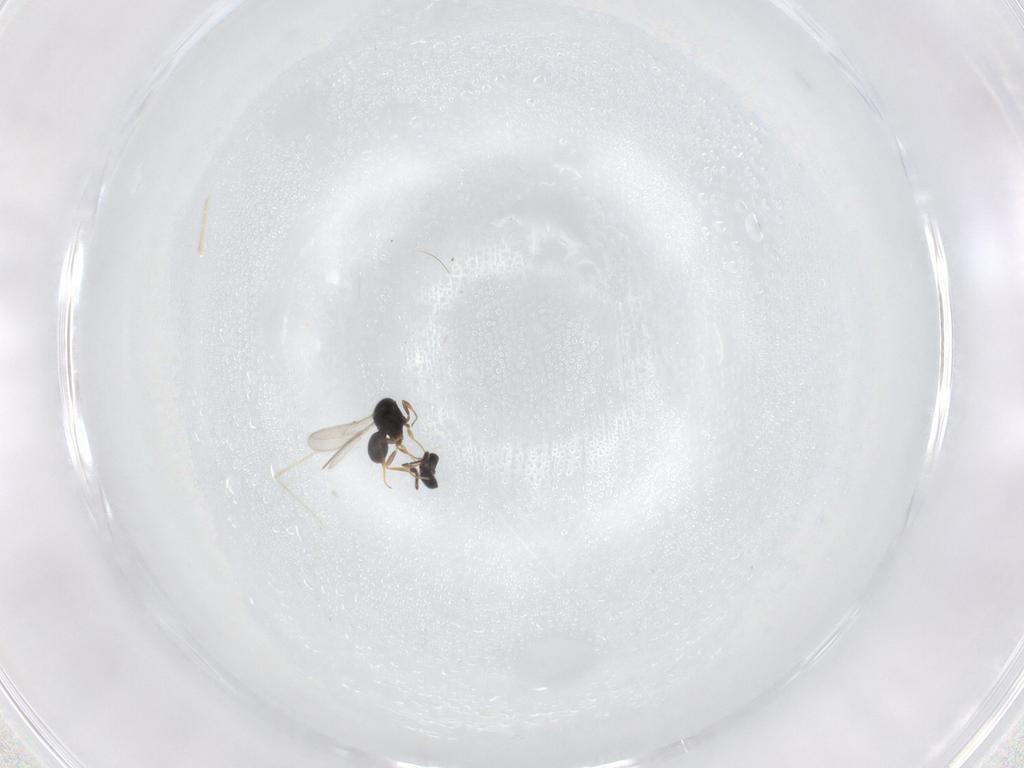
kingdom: Animalia
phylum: Arthropoda
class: Insecta
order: Hymenoptera
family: Scelionidae
